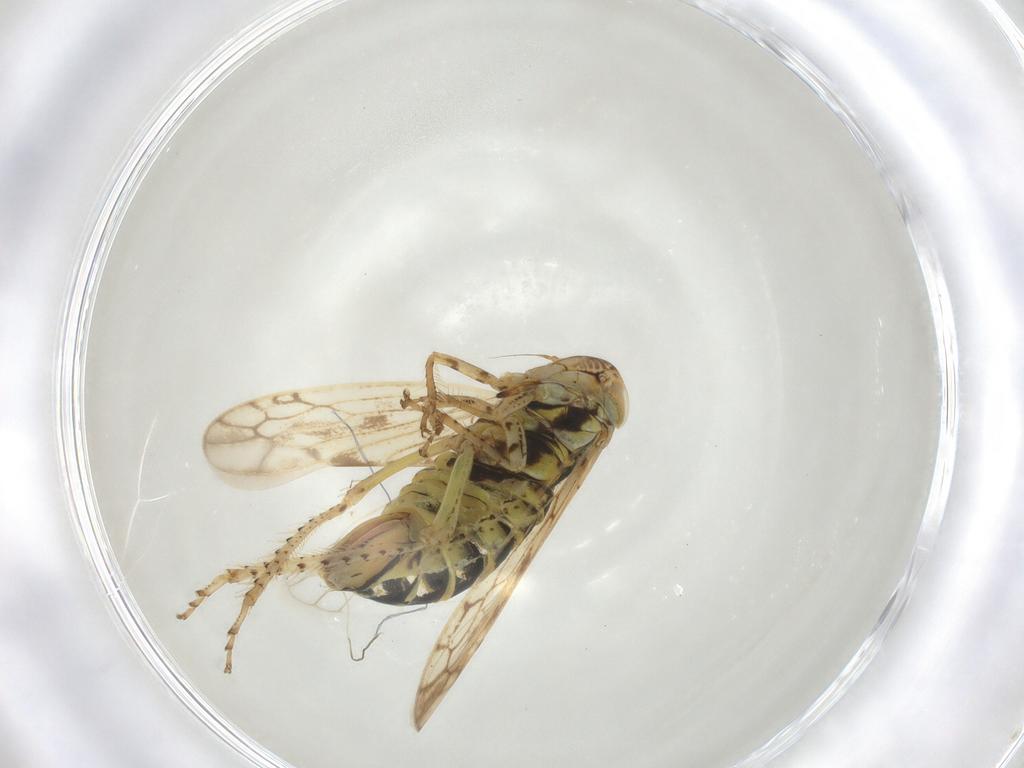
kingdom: Animalia
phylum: Arthropoda
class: Insecta
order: Hemiptera
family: Cicadellidae
